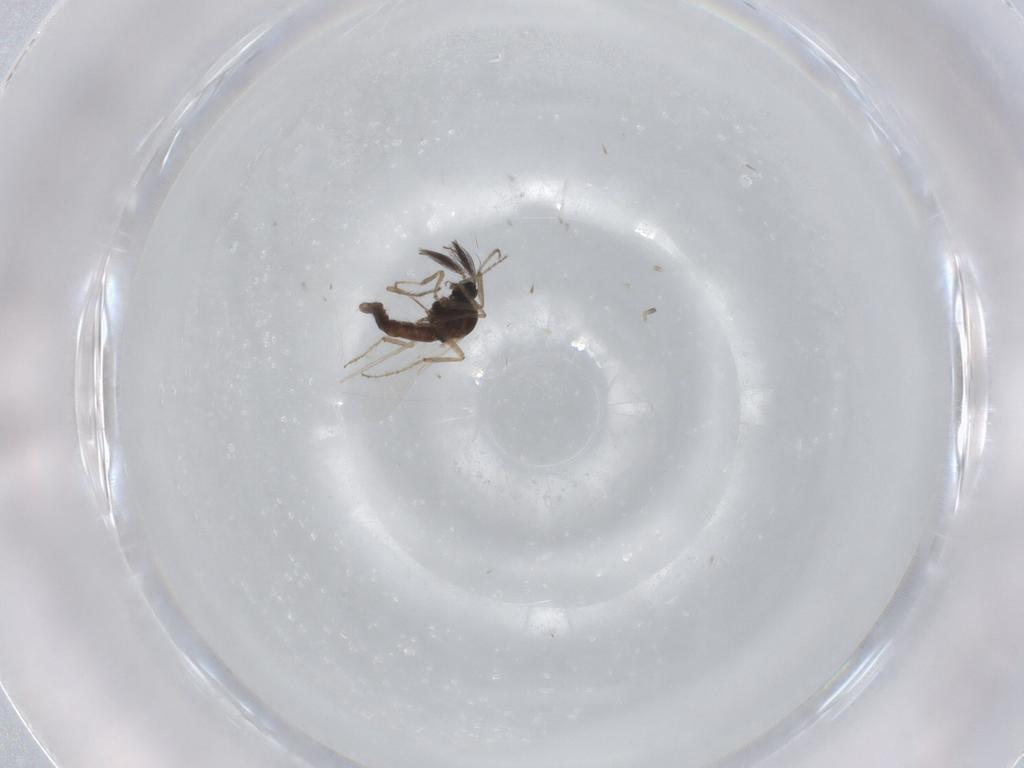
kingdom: Animalia
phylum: Arthropoda
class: Insecta
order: Diptera
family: Ceratopogonidae
